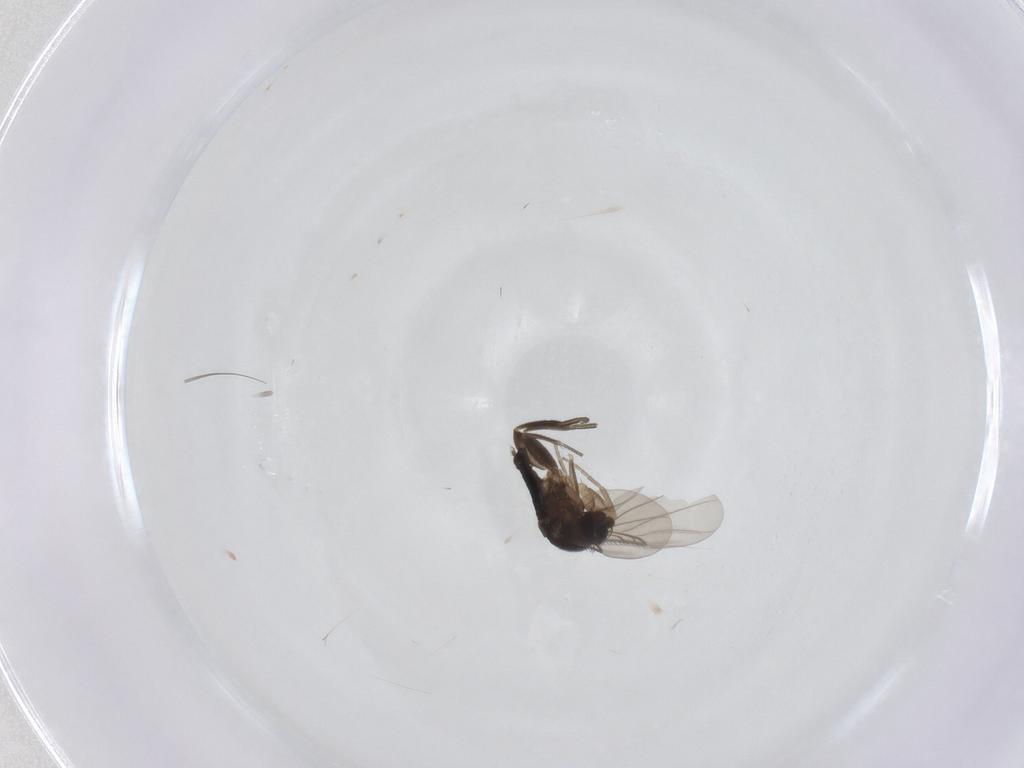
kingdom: Animalia
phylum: Arthropoda
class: Insecta
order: Diptera
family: Phoridae
